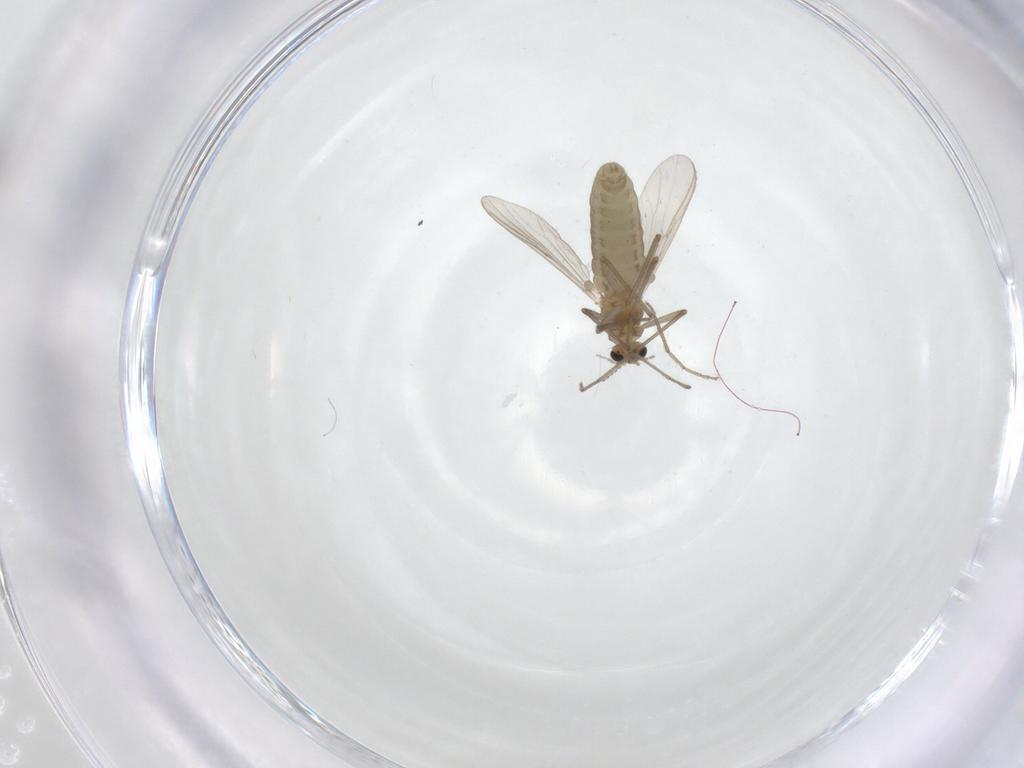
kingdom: Animalia
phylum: Arthropoda
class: Insecta
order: Diptera
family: Chironomidae
